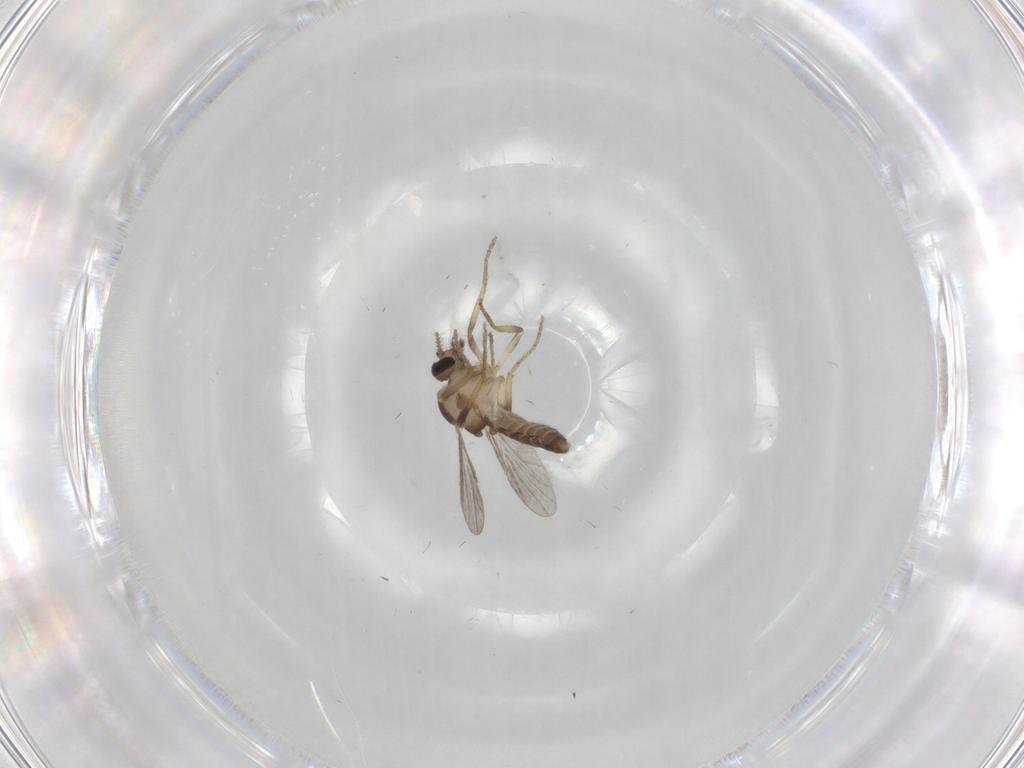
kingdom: Animalia
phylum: Arthropoda
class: Insecta
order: Diptera
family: Ceratopogonidae
